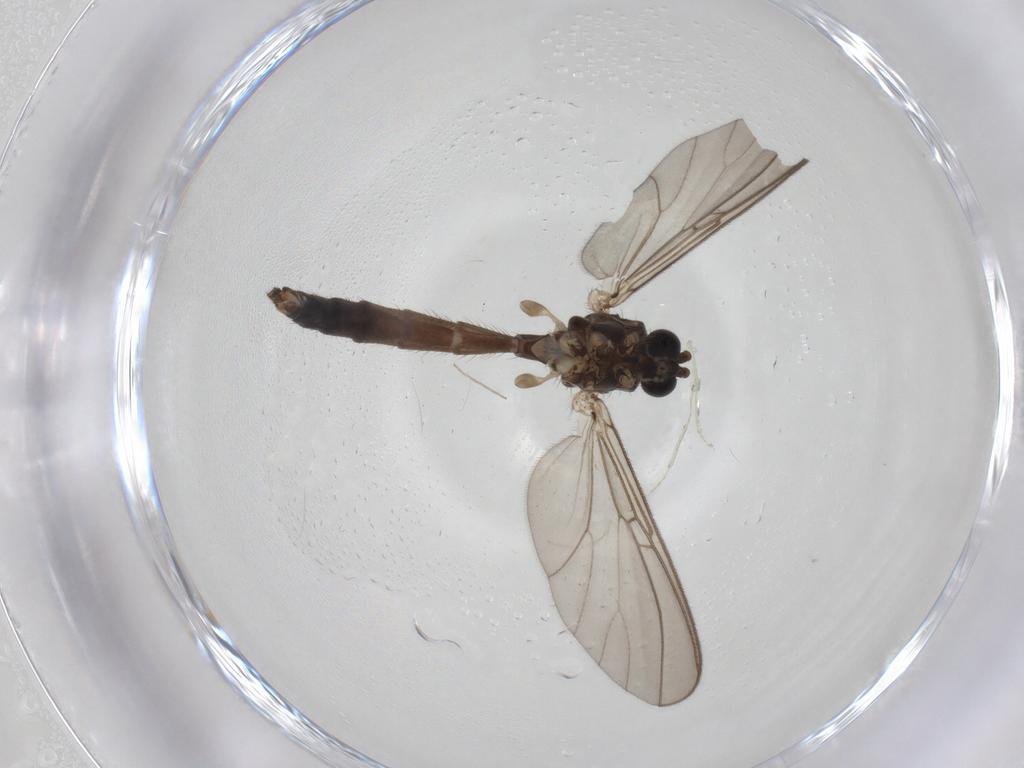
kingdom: Animalia
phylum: Arthropoda
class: Insecta
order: Diptera
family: Mycetophilidae
